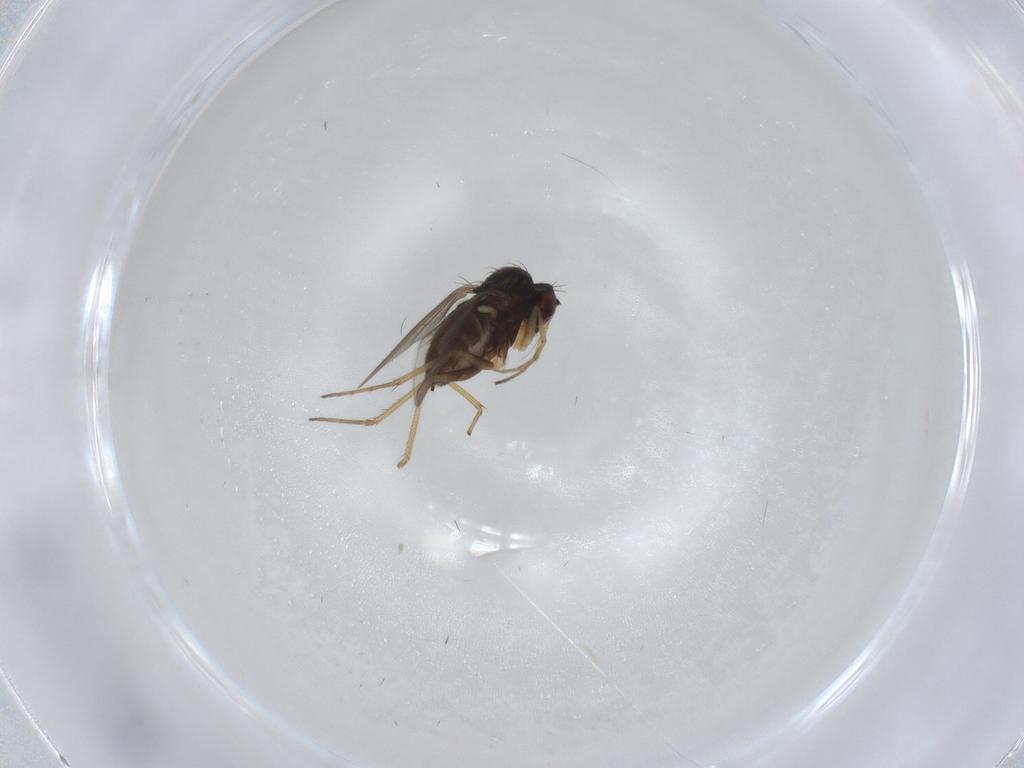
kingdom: Animalia
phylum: Arthropoda
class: Insecta
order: Diptera
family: Dolichopodidae
